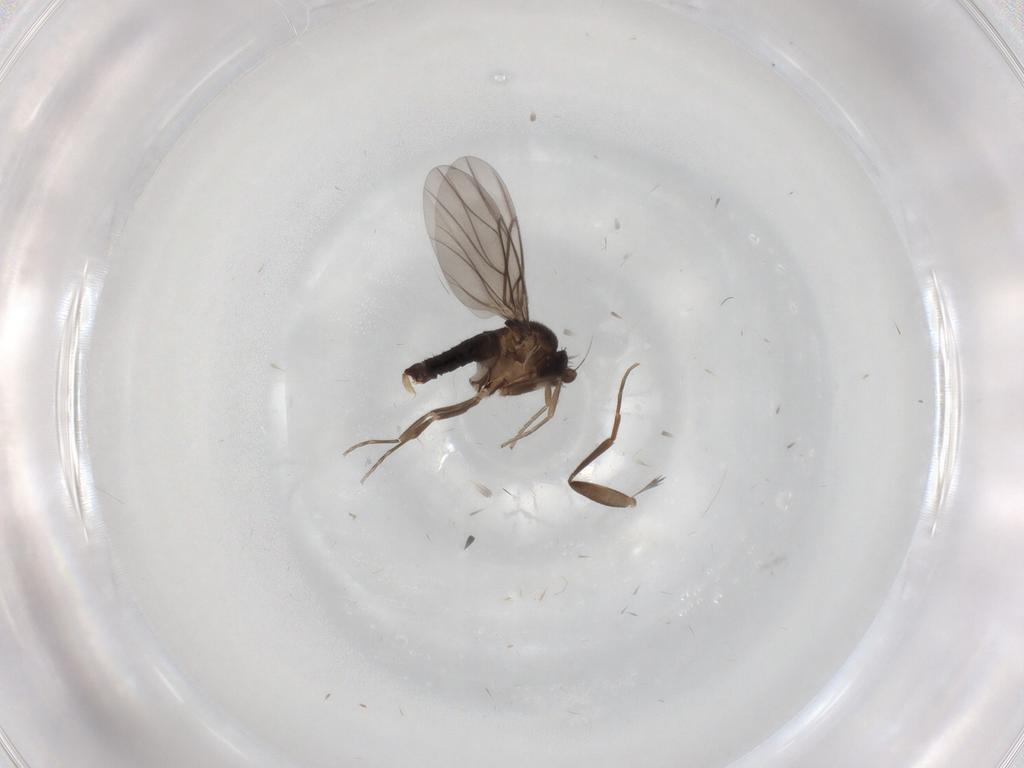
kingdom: Animalia
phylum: Arthropoda
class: Insecta
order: Diptera
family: Phoridae
